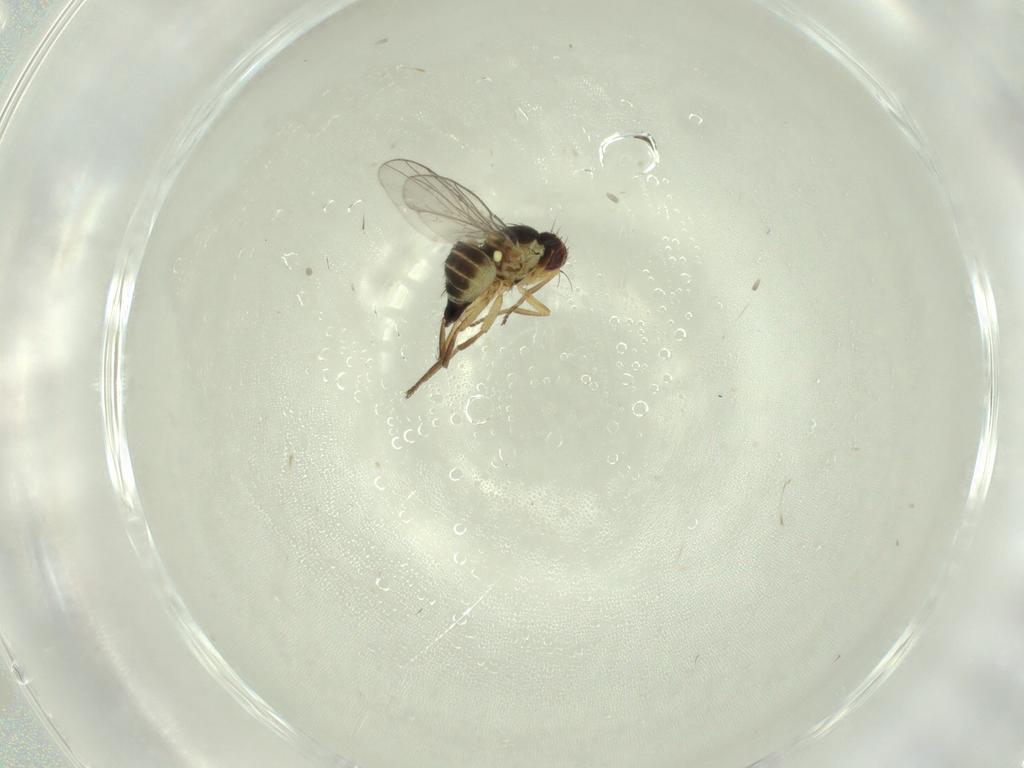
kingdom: Animalia
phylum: Arthropoda
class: Insecta
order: Diptera
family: Agromyzidae
